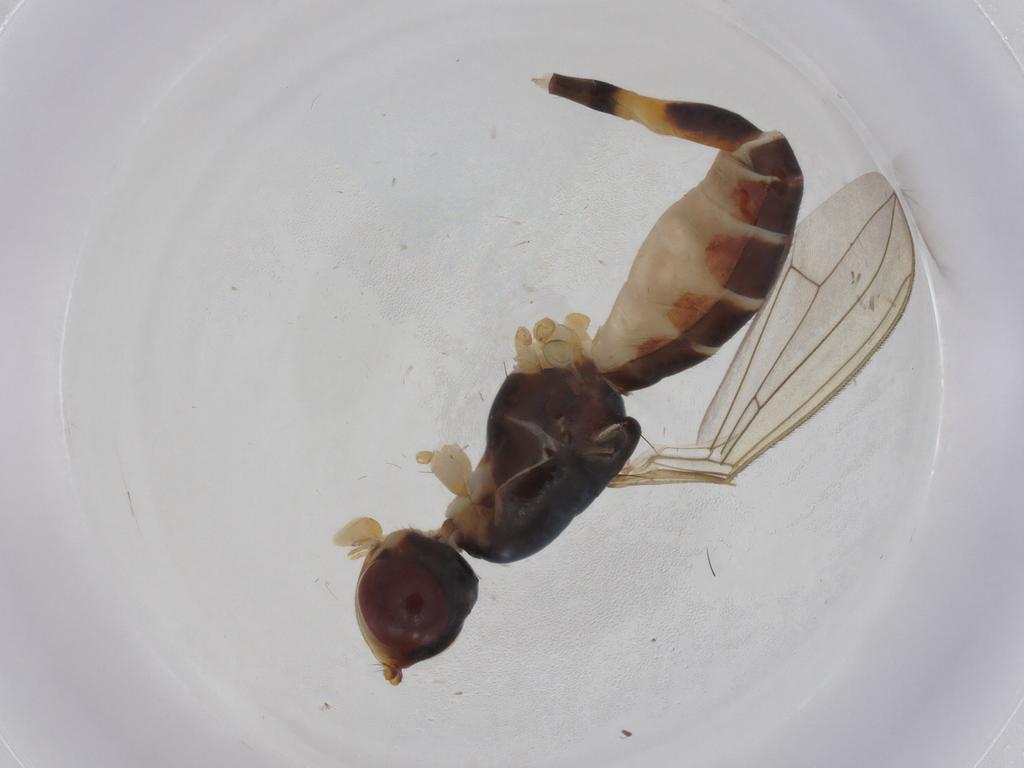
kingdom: Animalia
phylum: Arthropoda
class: Insecta
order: Diptera
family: Micropezidae
